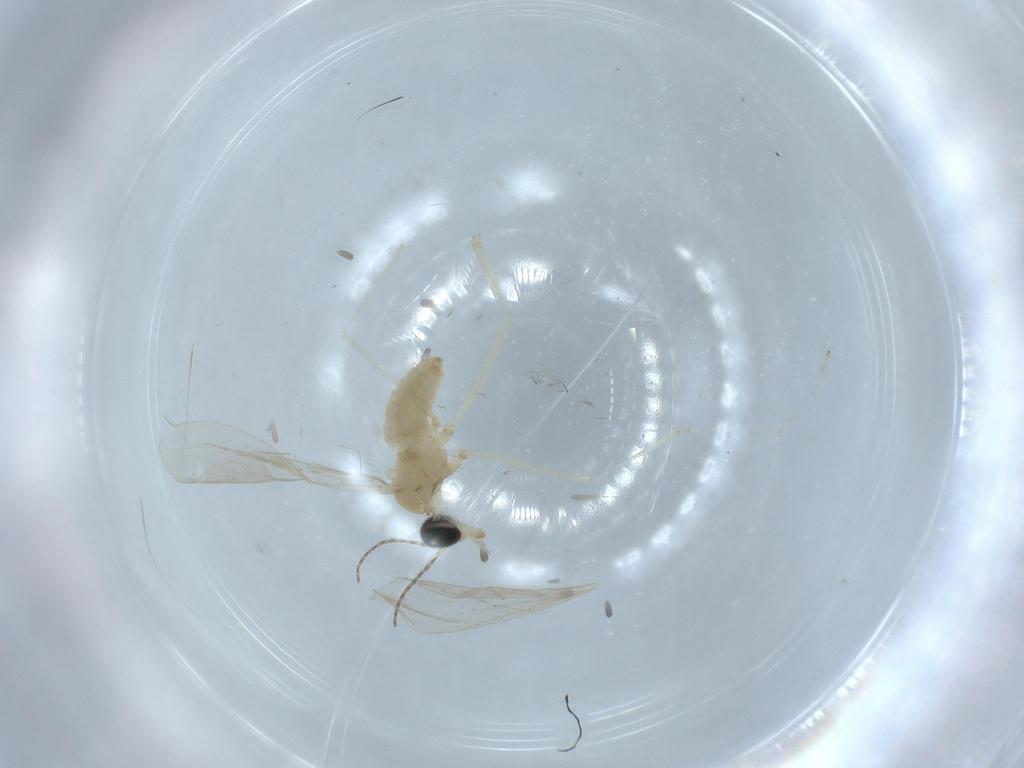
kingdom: Animalia
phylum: Arthropoda
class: Insecta
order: Diptera
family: Cecidomyiidae
